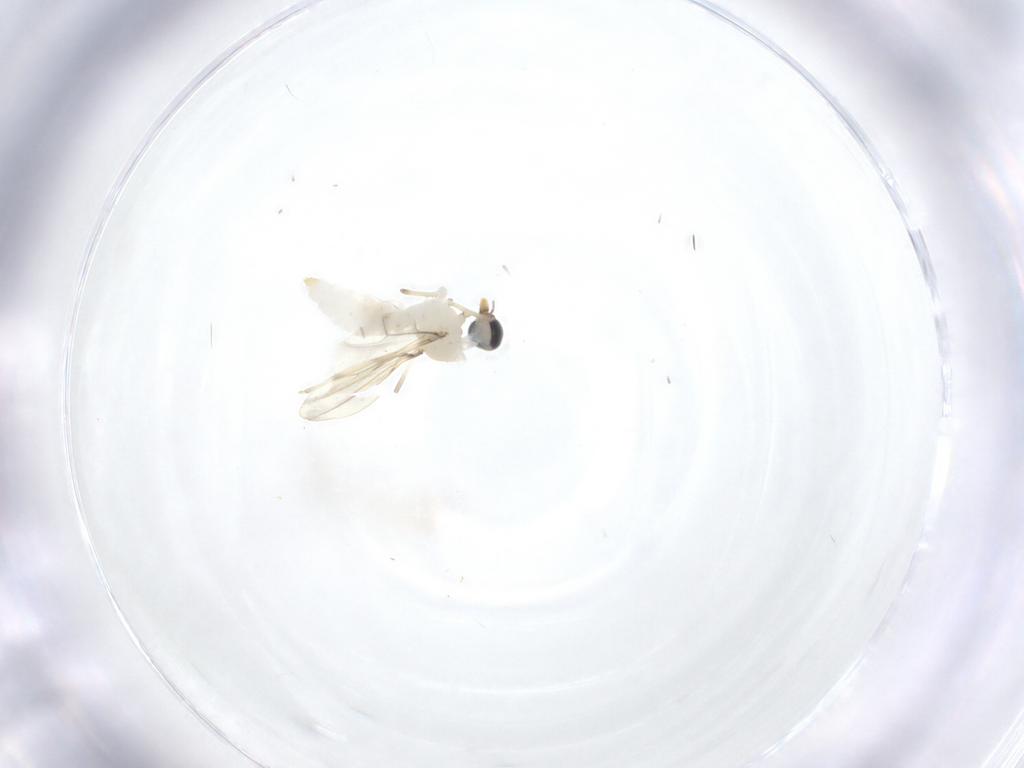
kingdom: Animalia
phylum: Arthropoda
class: Insecta
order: Diptera
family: Cecidomyiidae
